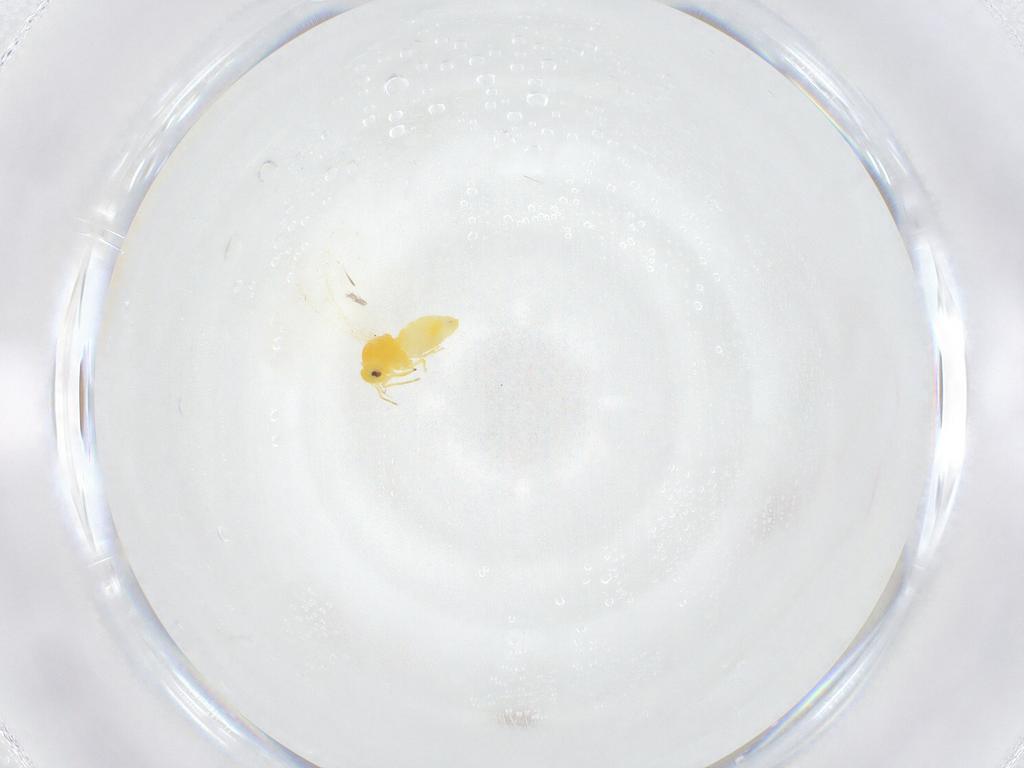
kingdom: Animalia
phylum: Arthropoda
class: Insecta
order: Hemiptera
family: Aleyrodidae
